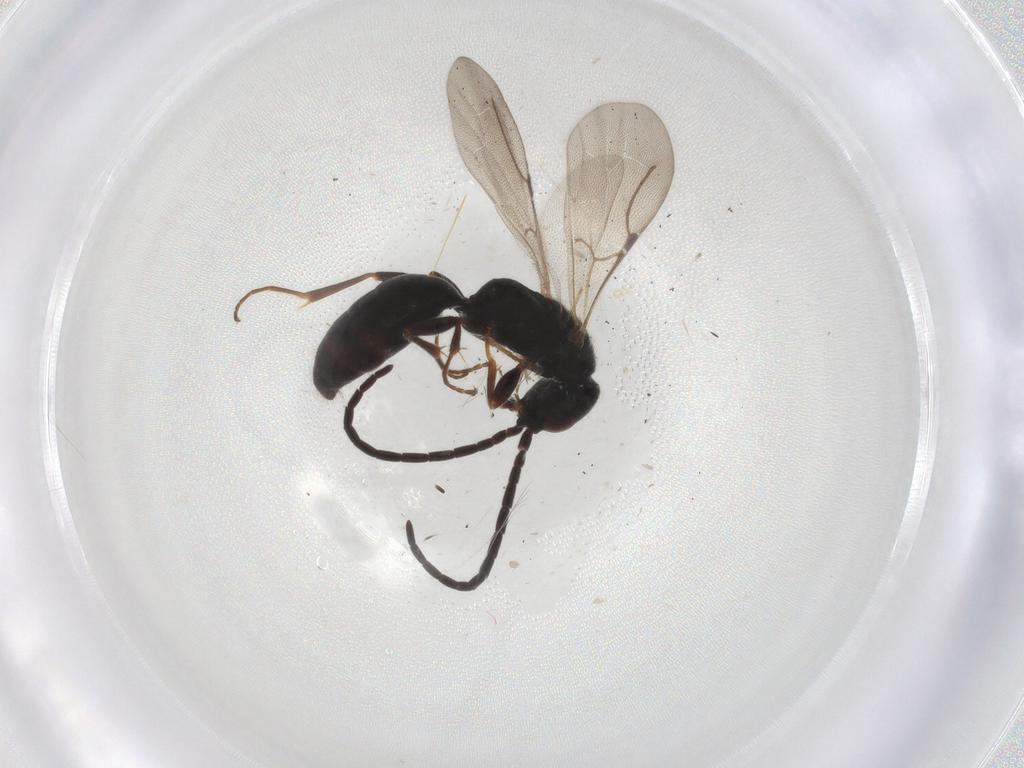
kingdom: Animalia
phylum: Arthropoda
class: Insecta
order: Hymenoptera
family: Bethylidae
